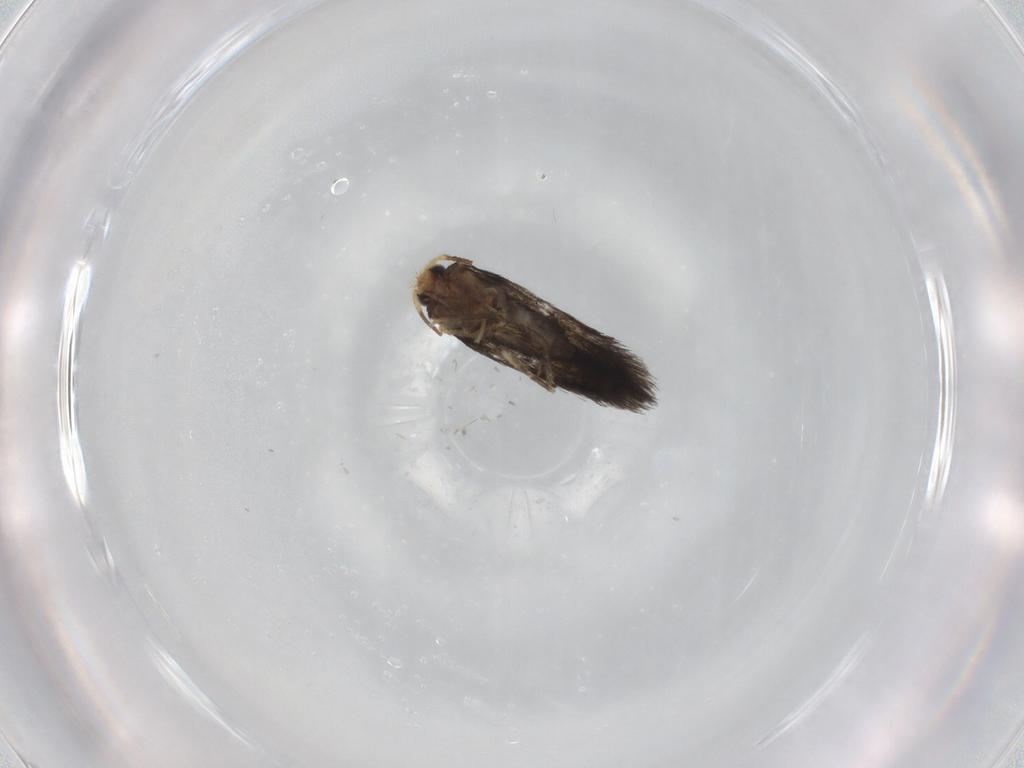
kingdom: Animalia
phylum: Arthropoda
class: Insecta
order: Lepidoptera
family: Nepticulidae
